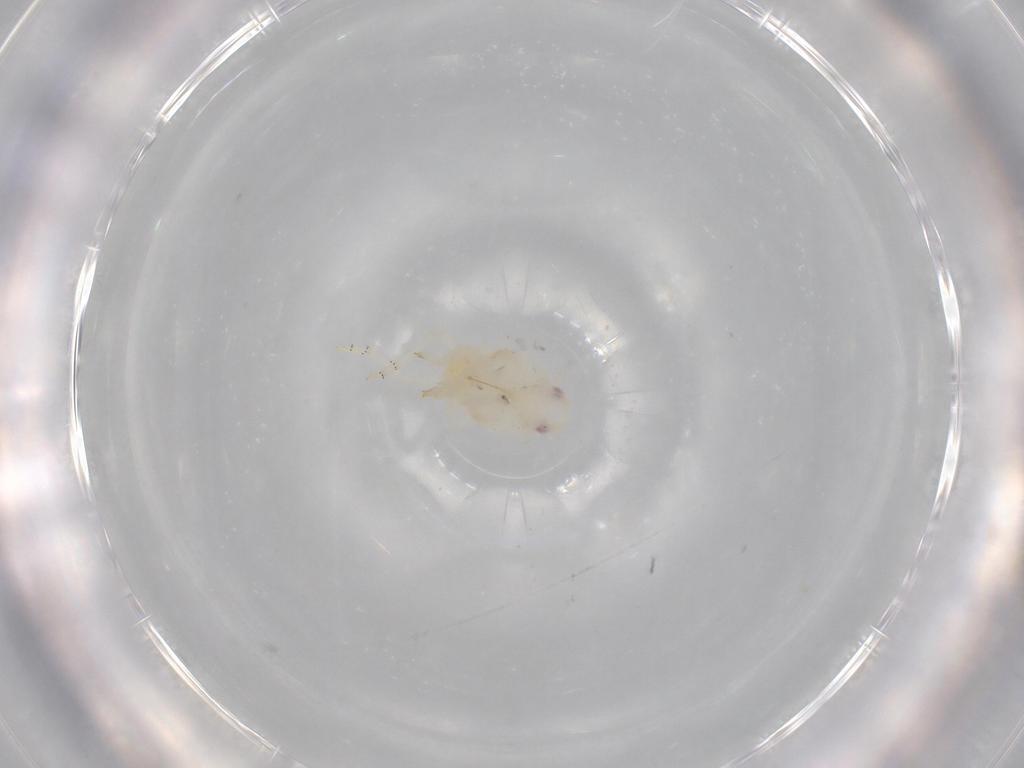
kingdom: Animalia
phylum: Arthropoda
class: Insecta
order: Hemiptera
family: Flatidae
